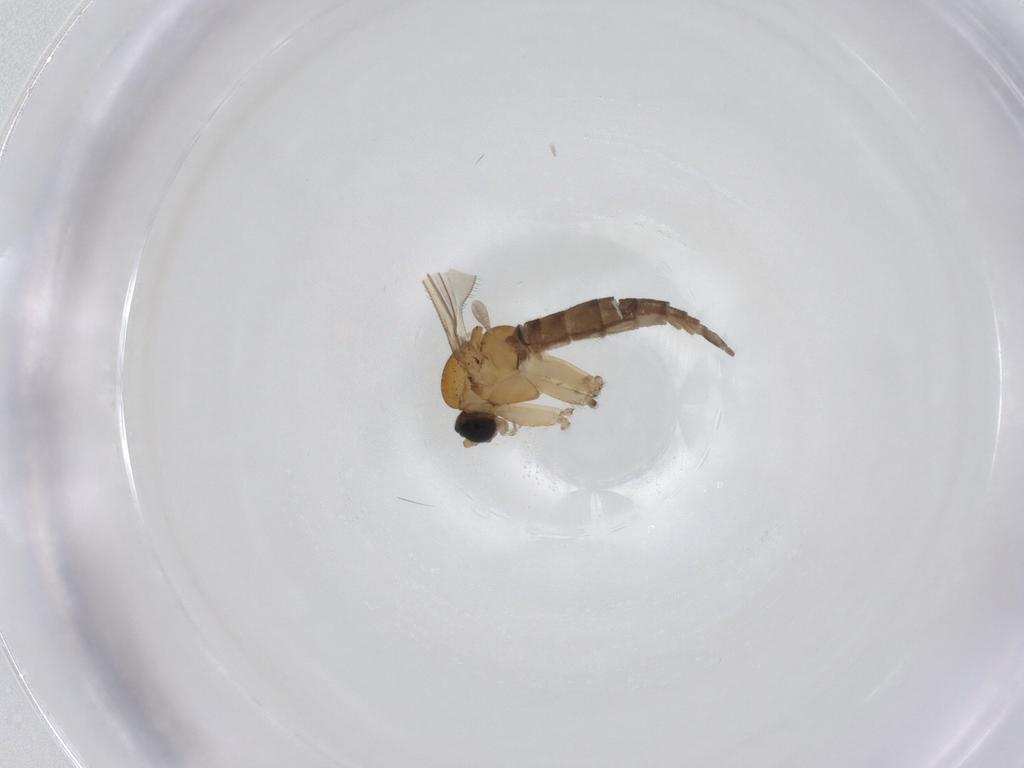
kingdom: Animalia
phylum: Arthropoda
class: Insecta
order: Diptera
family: Sciaridae
